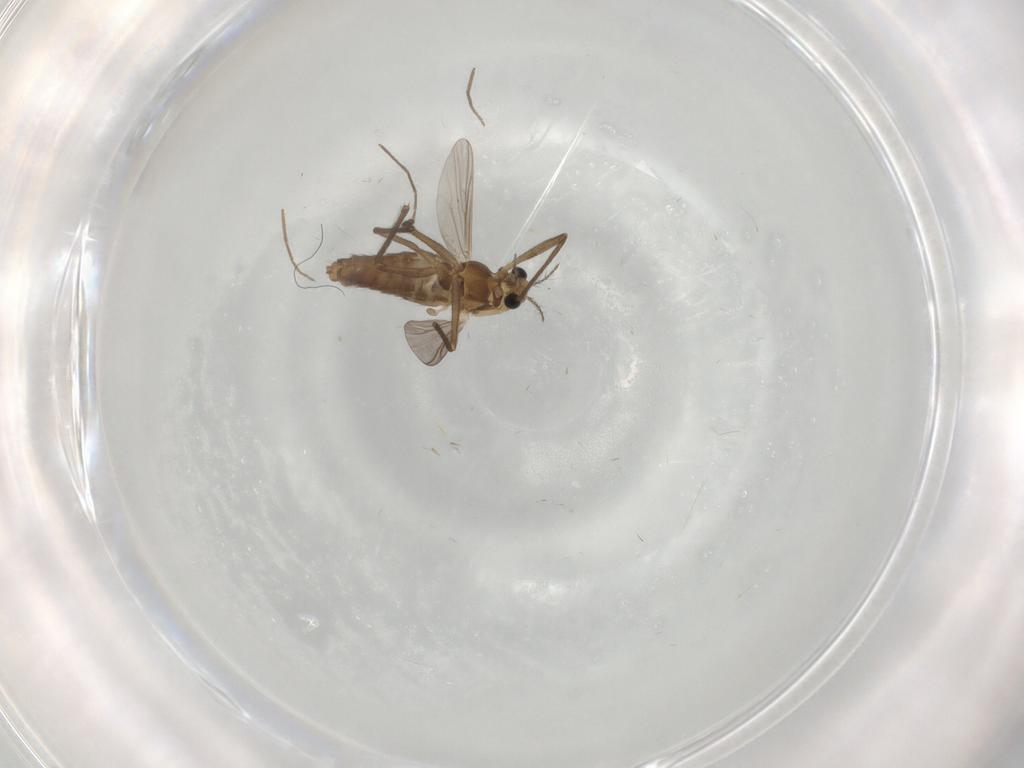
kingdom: Animalia
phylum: Arthropoda
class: Insecta
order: Diptera
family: Chironomidae
